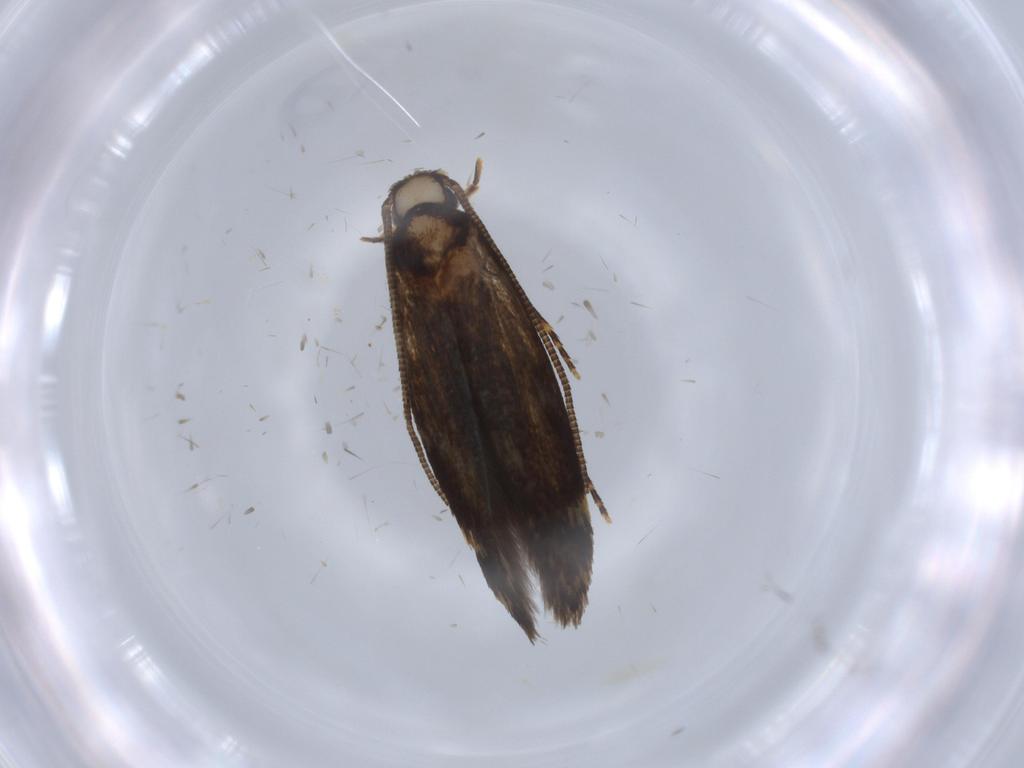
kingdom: Animalia
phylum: Arthropoda
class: Insecta
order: Lepidoptera
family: Tineidae
